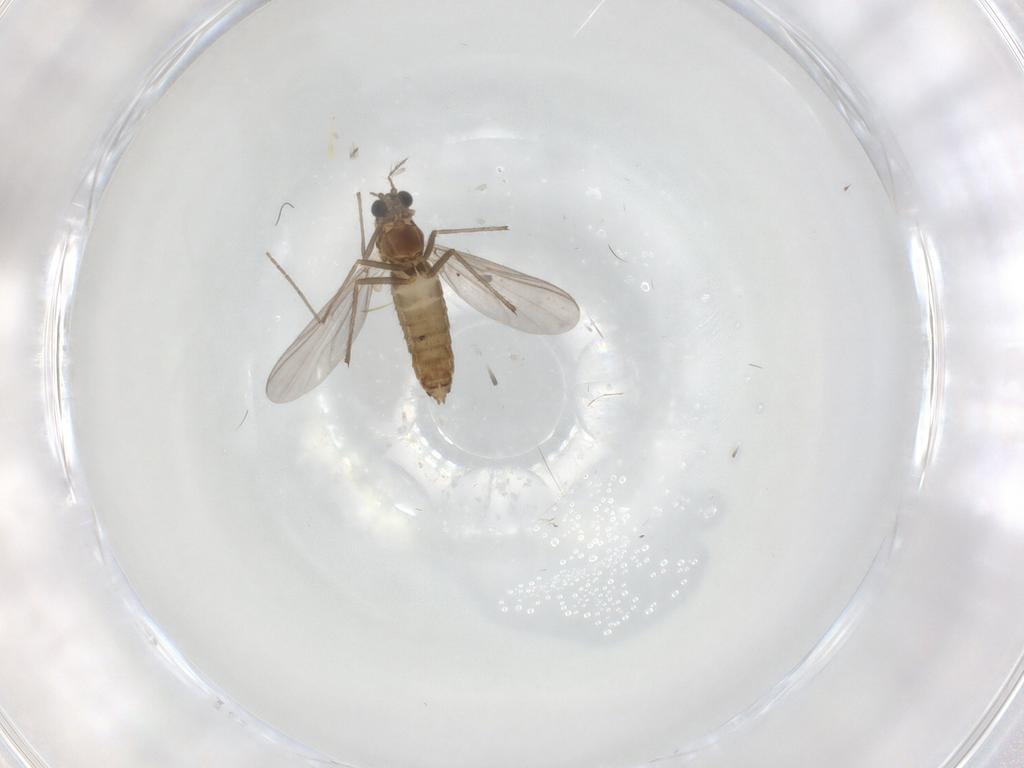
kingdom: Animalia
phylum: Arthropoda
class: Insecta
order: Diptera
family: Chironomidae
